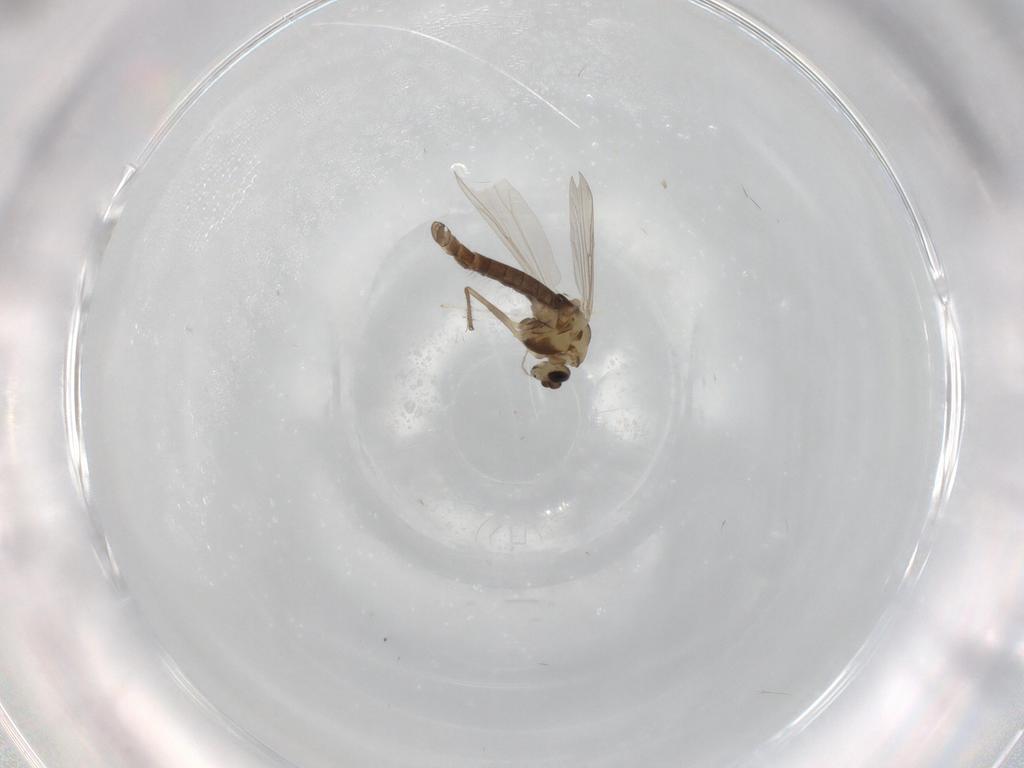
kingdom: Animalia
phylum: Arthropoda
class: Insecta
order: Diptera
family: Chironomidae
